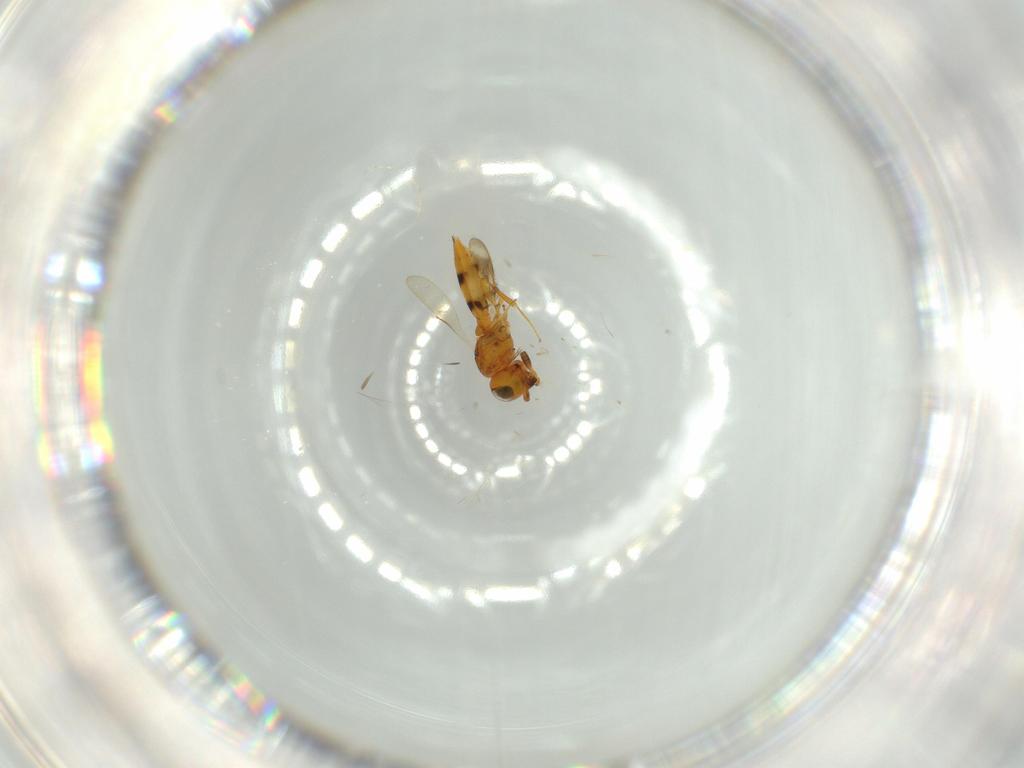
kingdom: Animalia
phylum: Arthropoda
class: Insecta
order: Hymenoptera
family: Scelionidae
